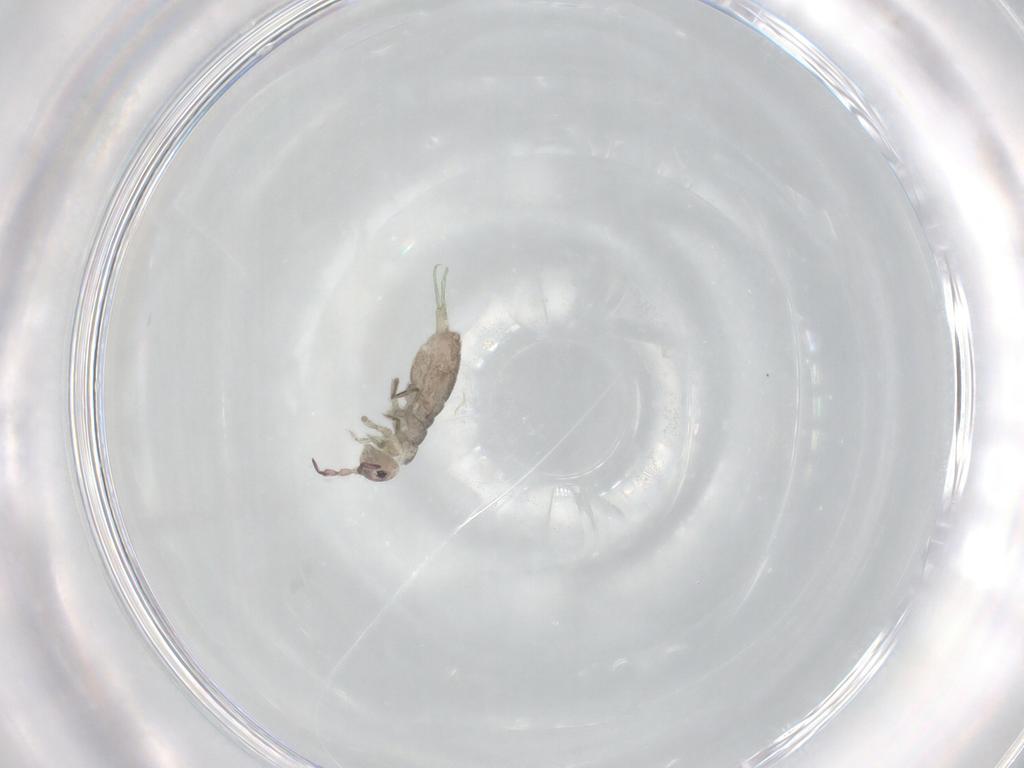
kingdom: Animalia
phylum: Arthropoda
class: Collembola
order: Entomobryomorpha
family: Isotomidae
